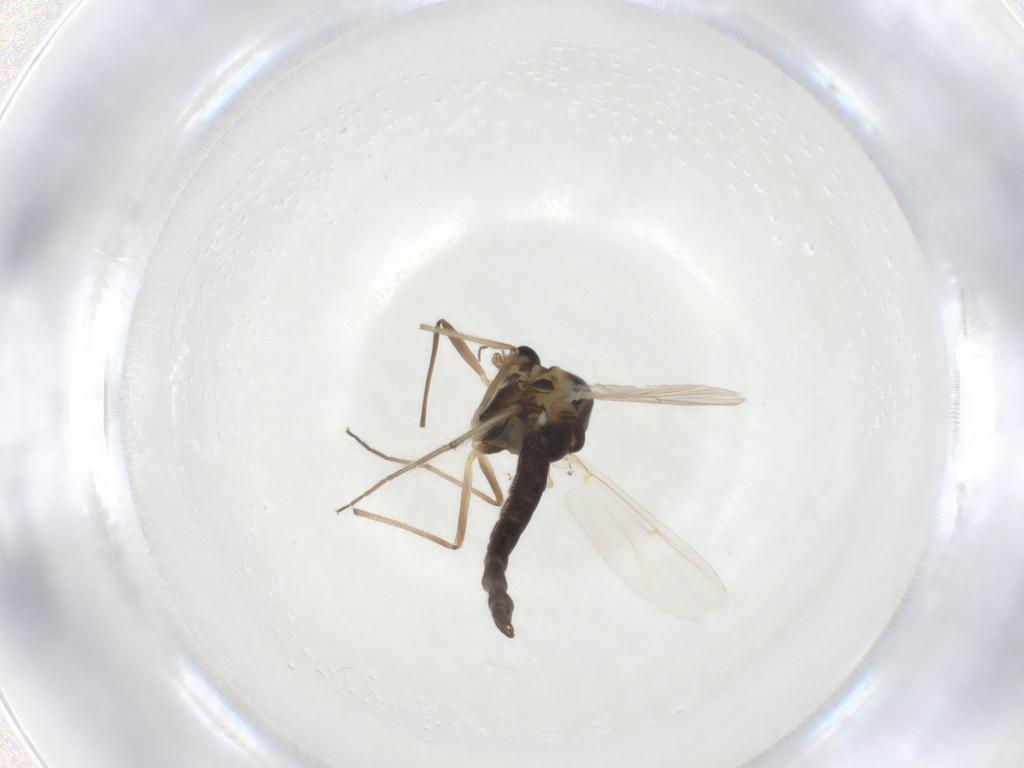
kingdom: Animalia
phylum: Arthropoda
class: Insecta
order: Diptera
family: Chironomidae
